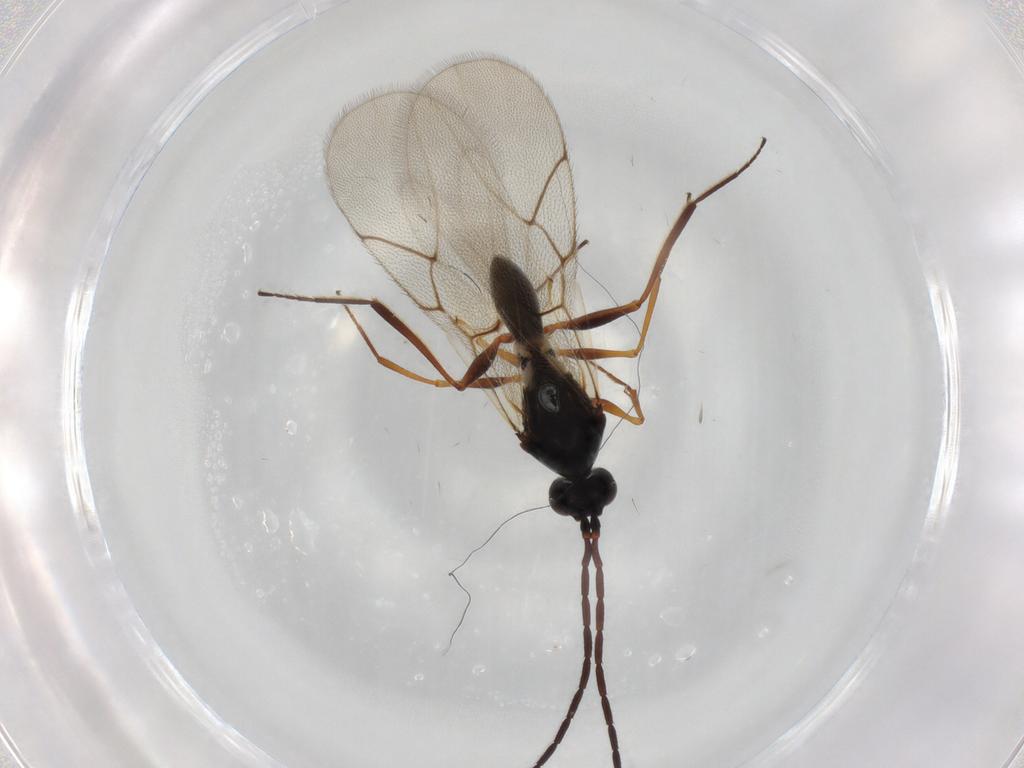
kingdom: Animalia
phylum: Arthropoda
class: Insecta
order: Hymenoptera
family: Figitidae
